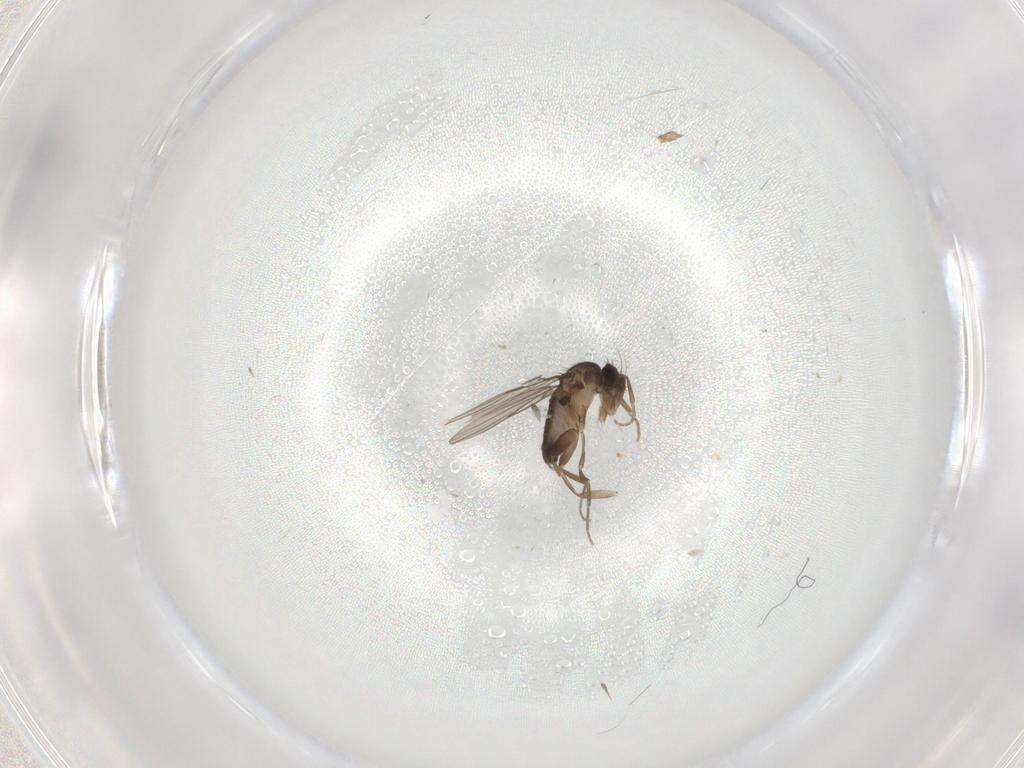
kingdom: Animalia
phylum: Arthropoda
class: Insecta
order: Diptera
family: Phoridae
